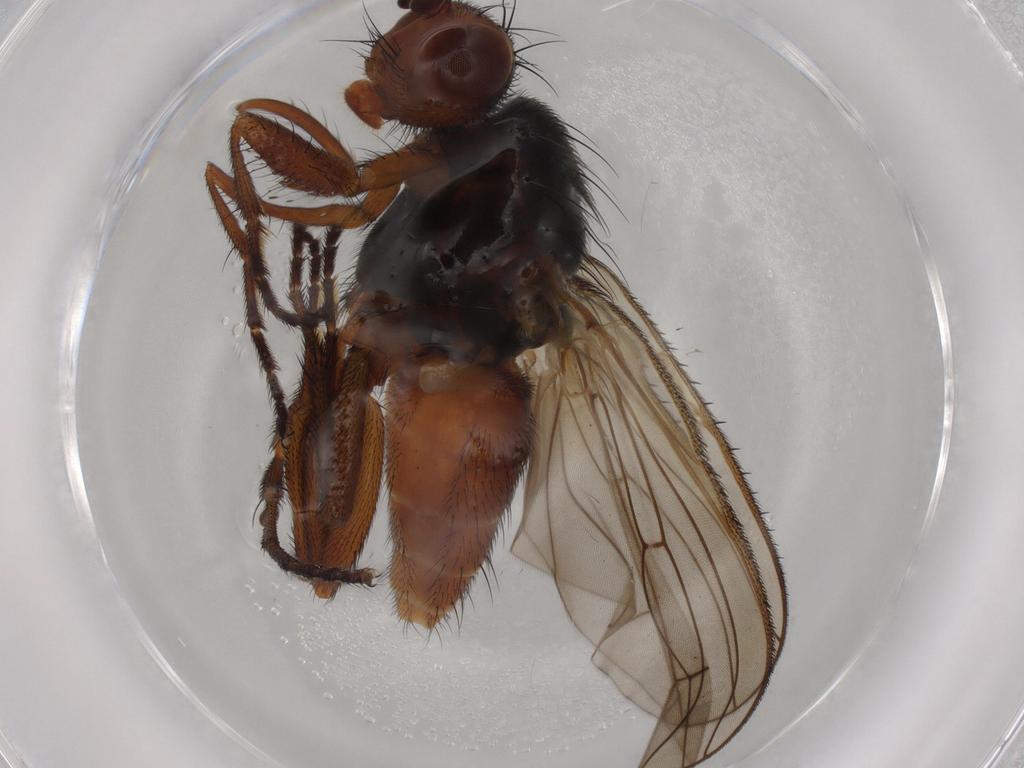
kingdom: Animalia
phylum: Arthropoda
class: Insecta
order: Diptera
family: Heleomyzidae
